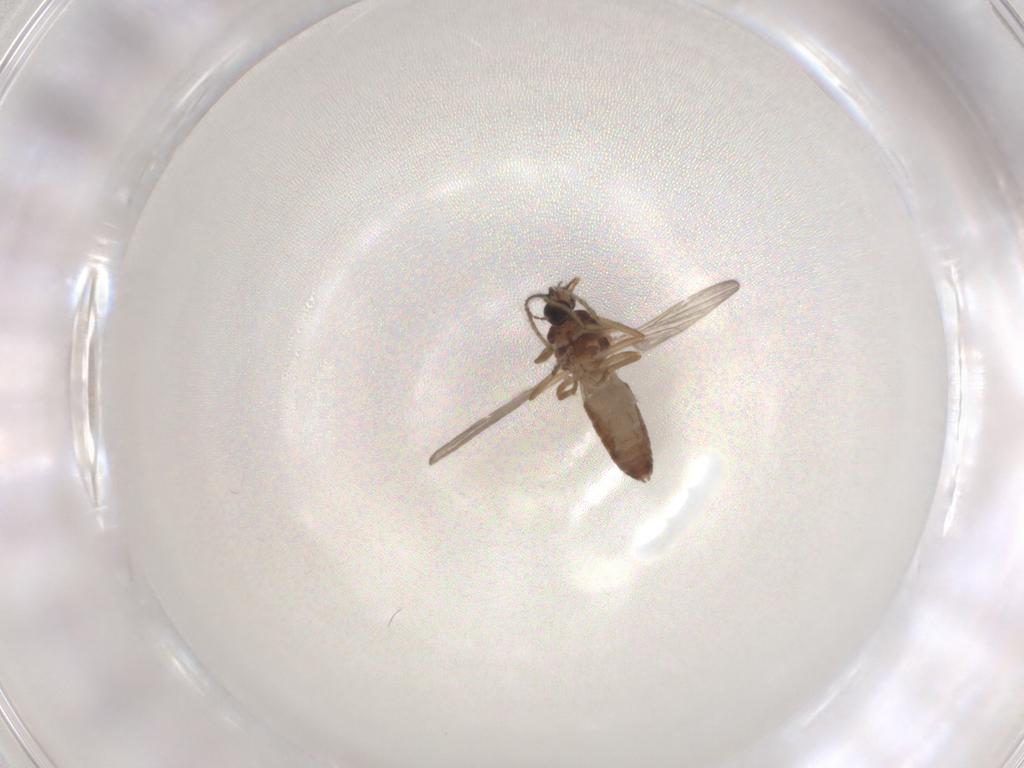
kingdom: Animalia
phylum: Arthropoda
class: Insecta
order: Diptera
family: Ceratopogonidae
